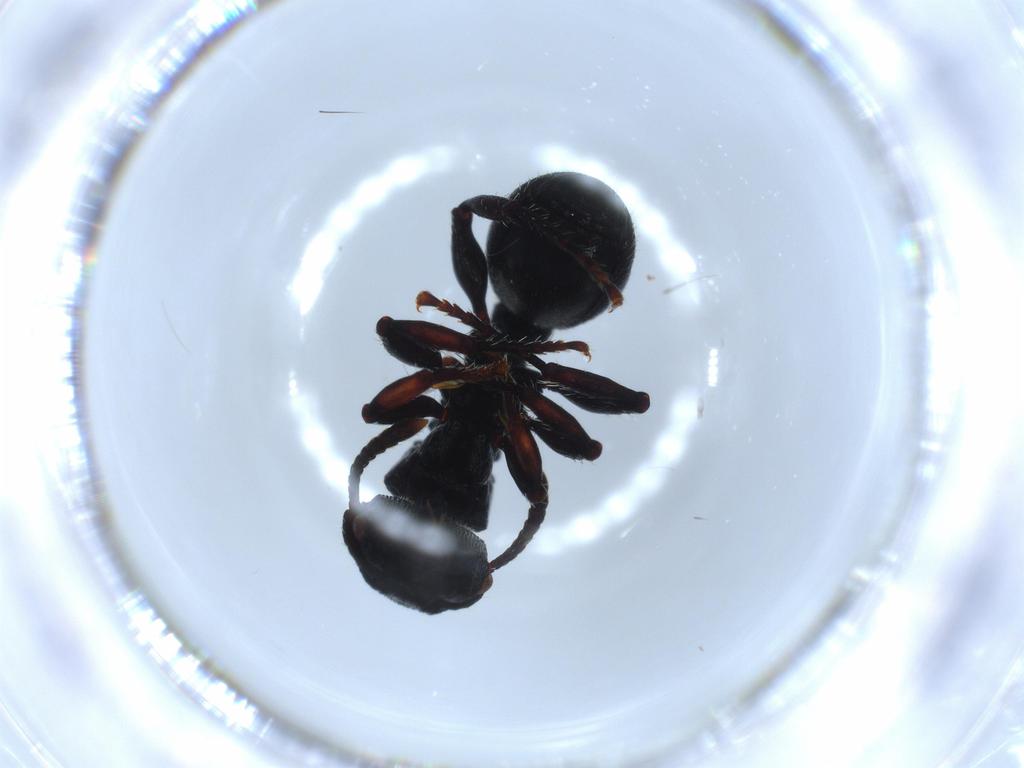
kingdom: Animalia
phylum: Arthropoda
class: Insecta
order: Hymenoptera
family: Formicidae
